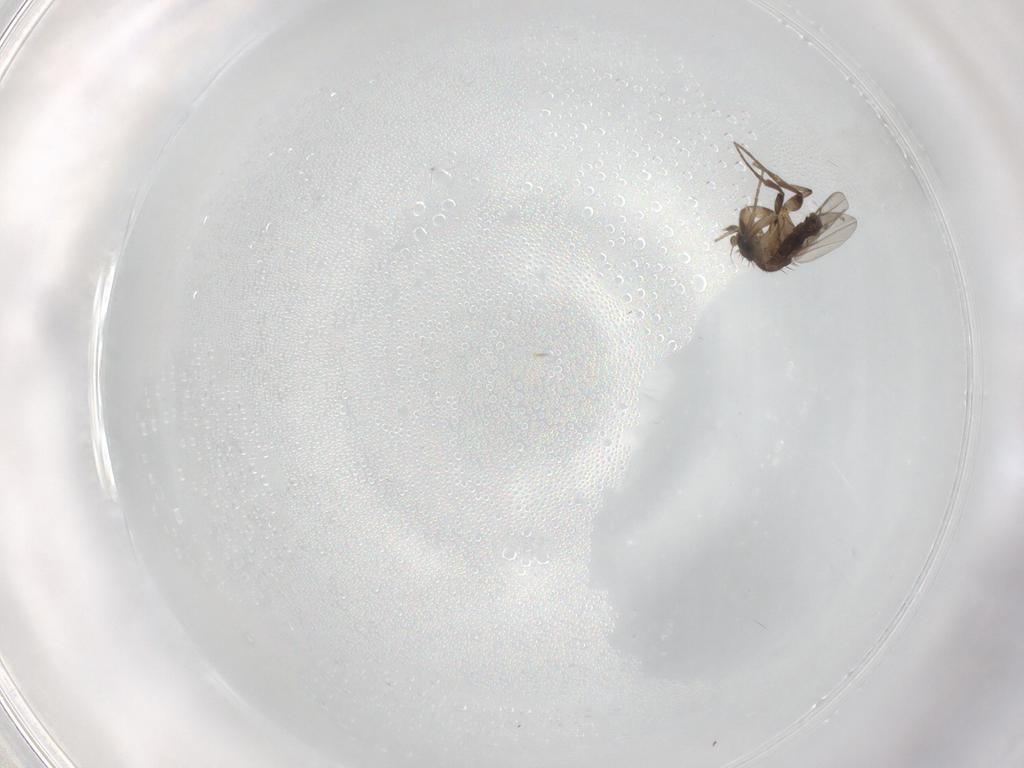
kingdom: Animalia
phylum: Arthropoda
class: Insecta
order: Diptera
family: Phoridae
